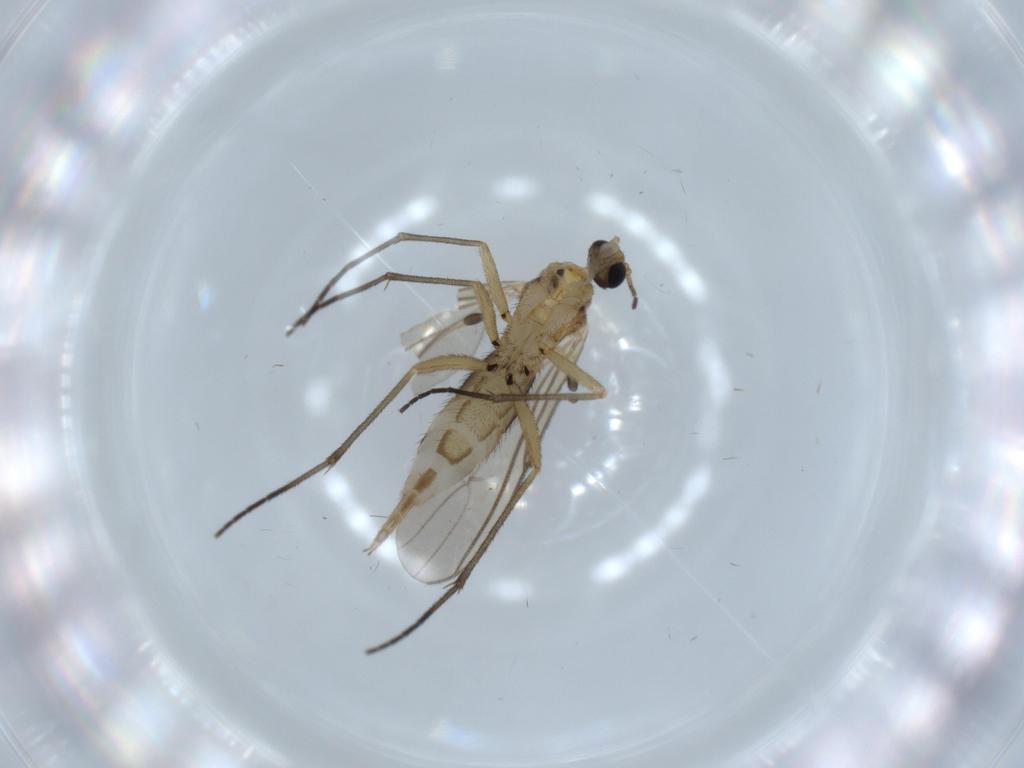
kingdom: Animalia
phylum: Arthropoda
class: Insecta
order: Diptera
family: Sciaridae
